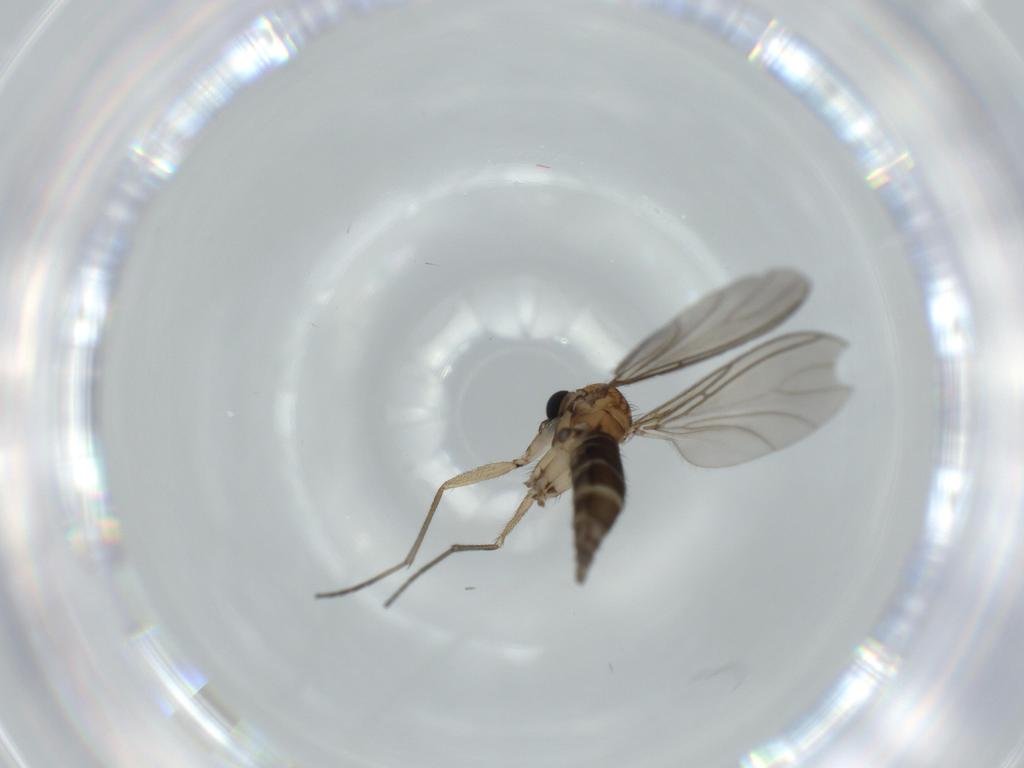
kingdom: Animalia
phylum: Arthropoda
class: Insecta
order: Diptera
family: Sciaridae
